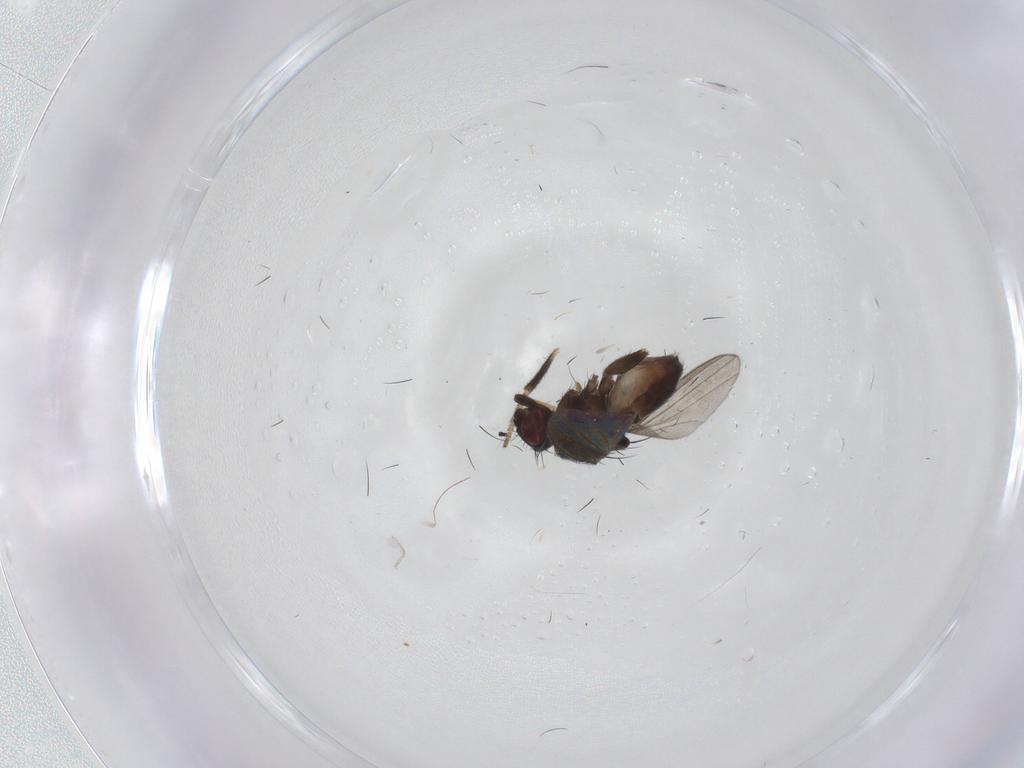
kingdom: Animalia
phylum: Arthropoda
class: Insecta
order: Diptera
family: Milichiidae
